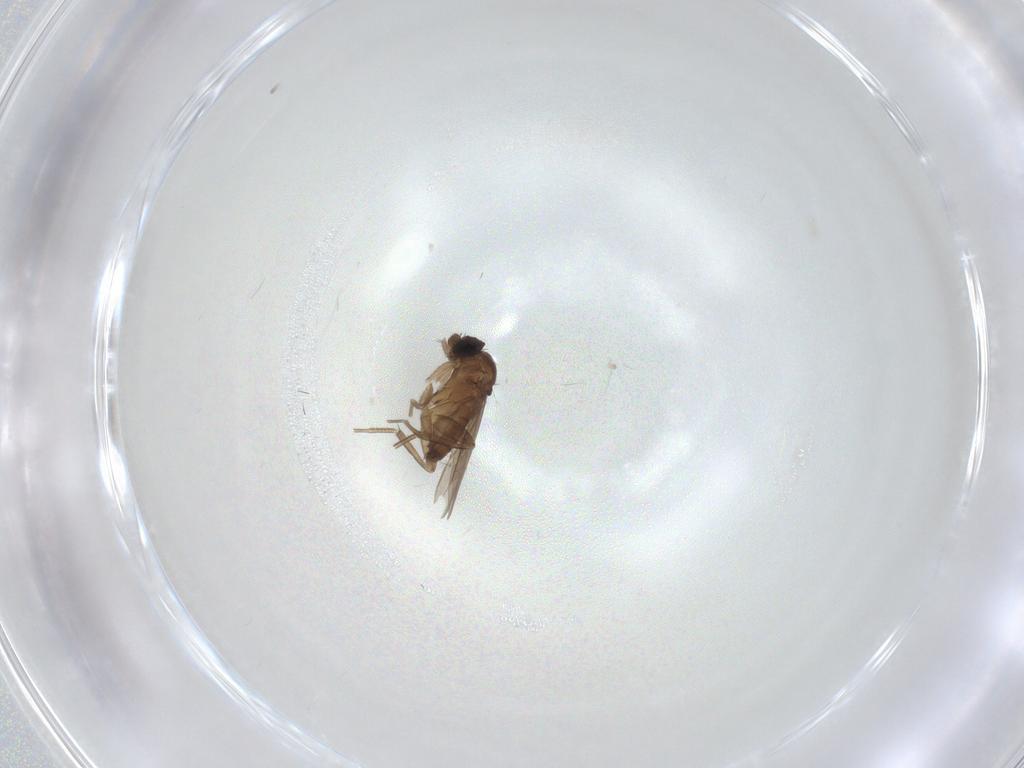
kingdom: Animalia
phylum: Arthropoda
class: Insecta
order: Diptera
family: Phoridae
